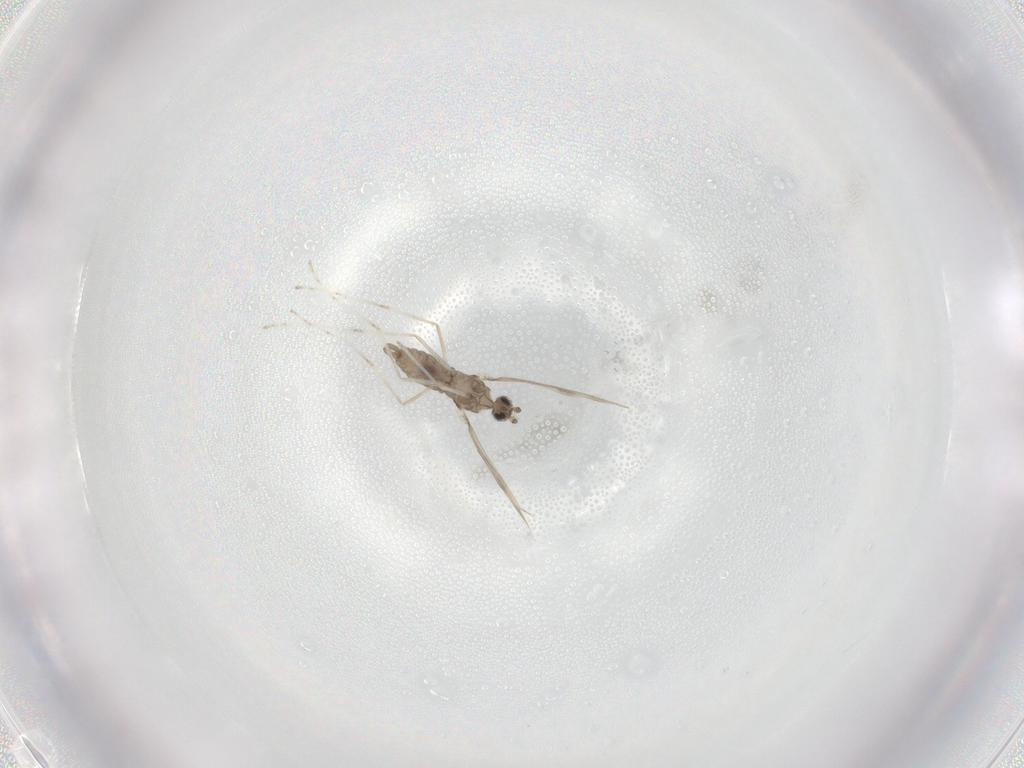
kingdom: Animalia
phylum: Arthropoda
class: Insecta
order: Diptera
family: Cecidomyiidae
